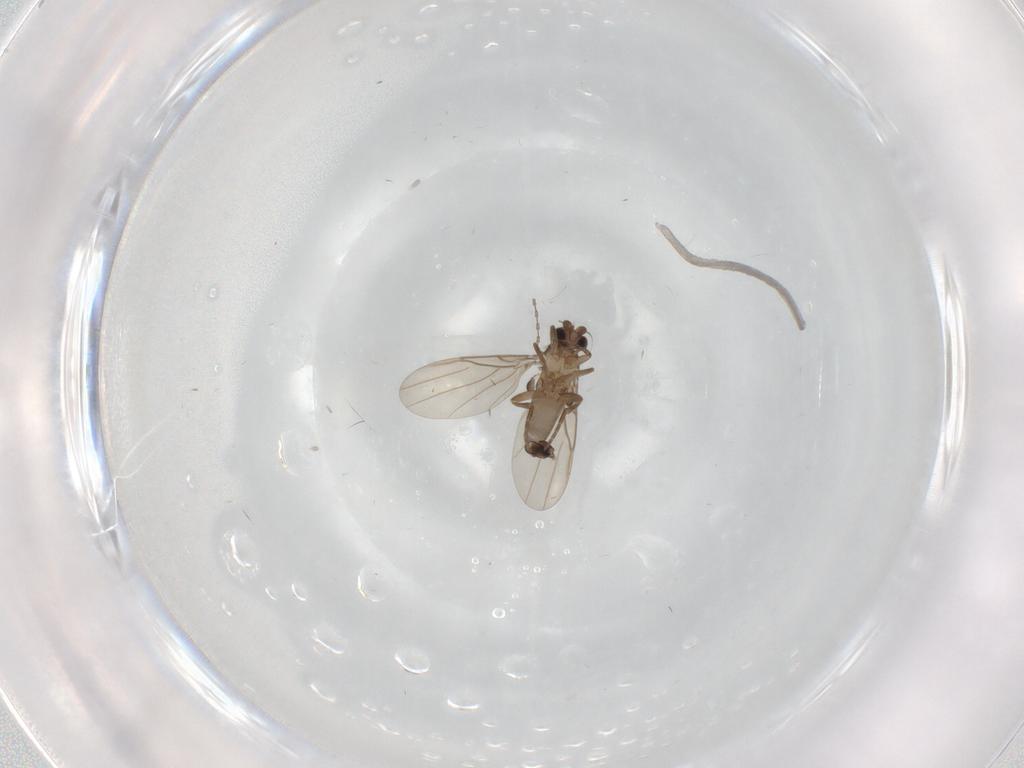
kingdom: Animalia
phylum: Arthropoda
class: Insecta
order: Diptera
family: Phoridae
